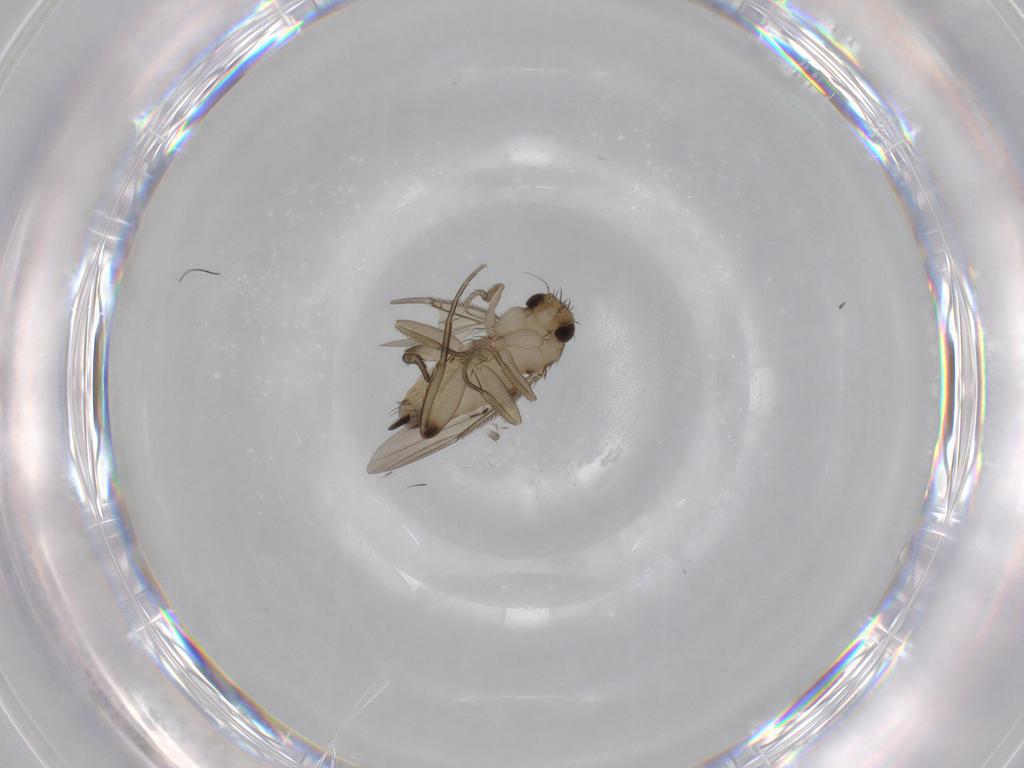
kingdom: Animalia
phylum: Arthropoda
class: Insecta
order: Diptera
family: Phoridae
